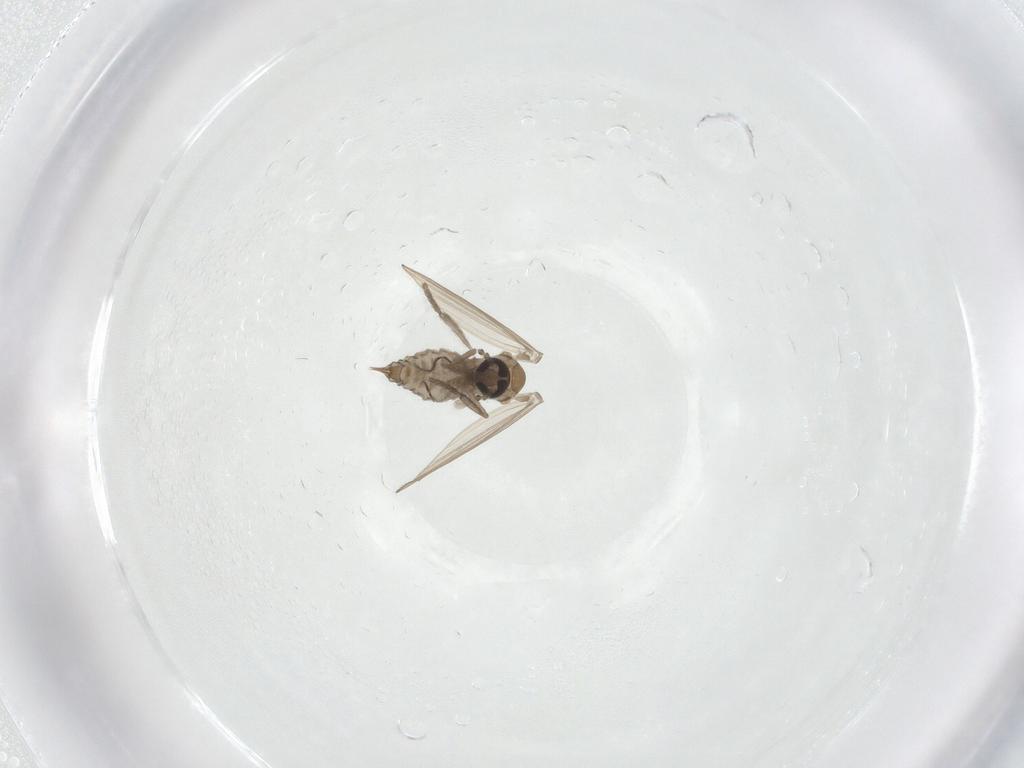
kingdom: Animalia
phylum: Arthropoda
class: Insecta
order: Diptera
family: Psychodidae
